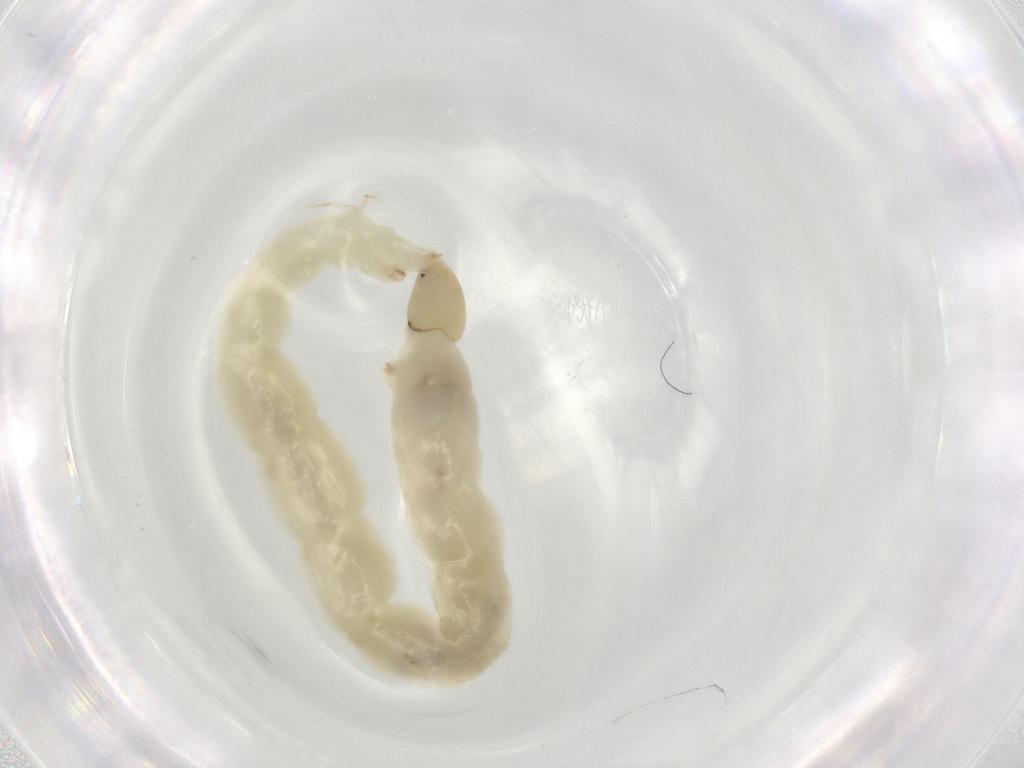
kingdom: Animalia
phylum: Arthropoda
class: Insecta
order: Diptera
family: Chironomidae
